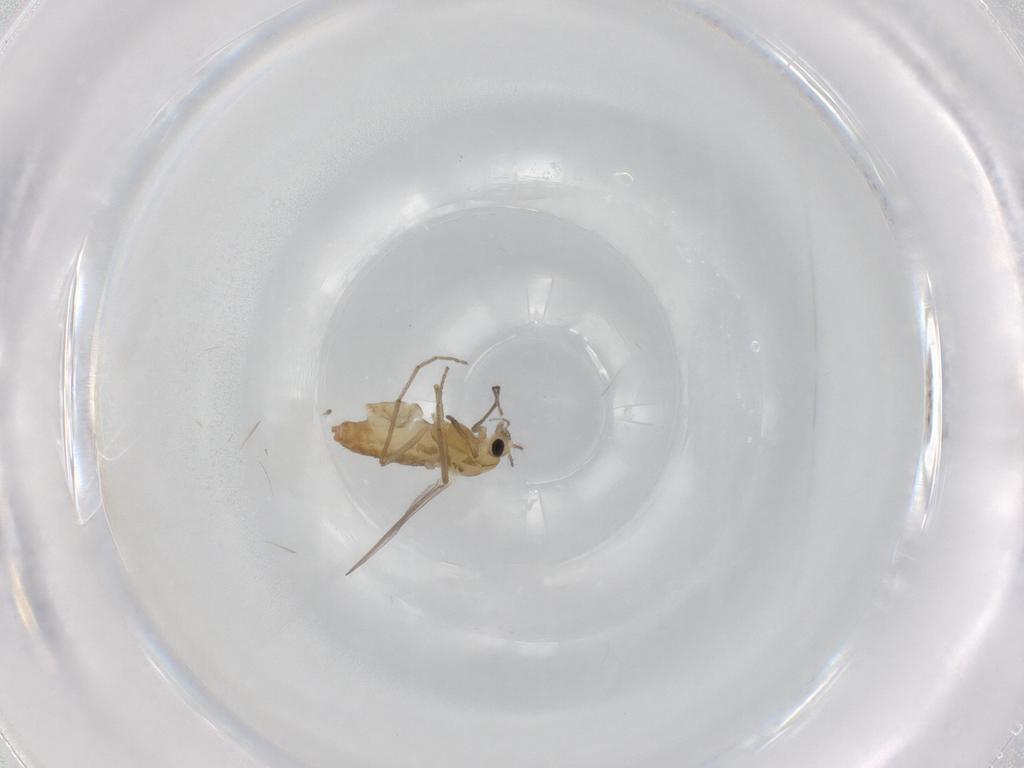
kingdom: Animalia
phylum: Arthropoda
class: Insecta
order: Diptera
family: Chironomidae
